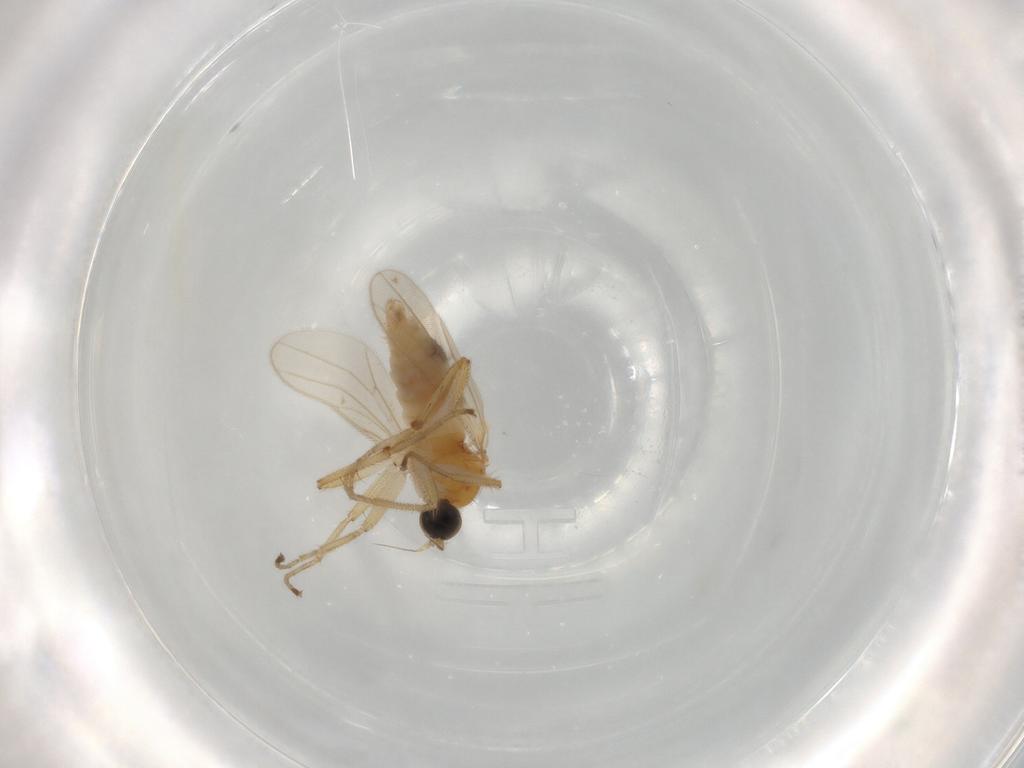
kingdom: Animalia
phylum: Arthropoda
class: Insecta
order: Diptera
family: Hybotidae
